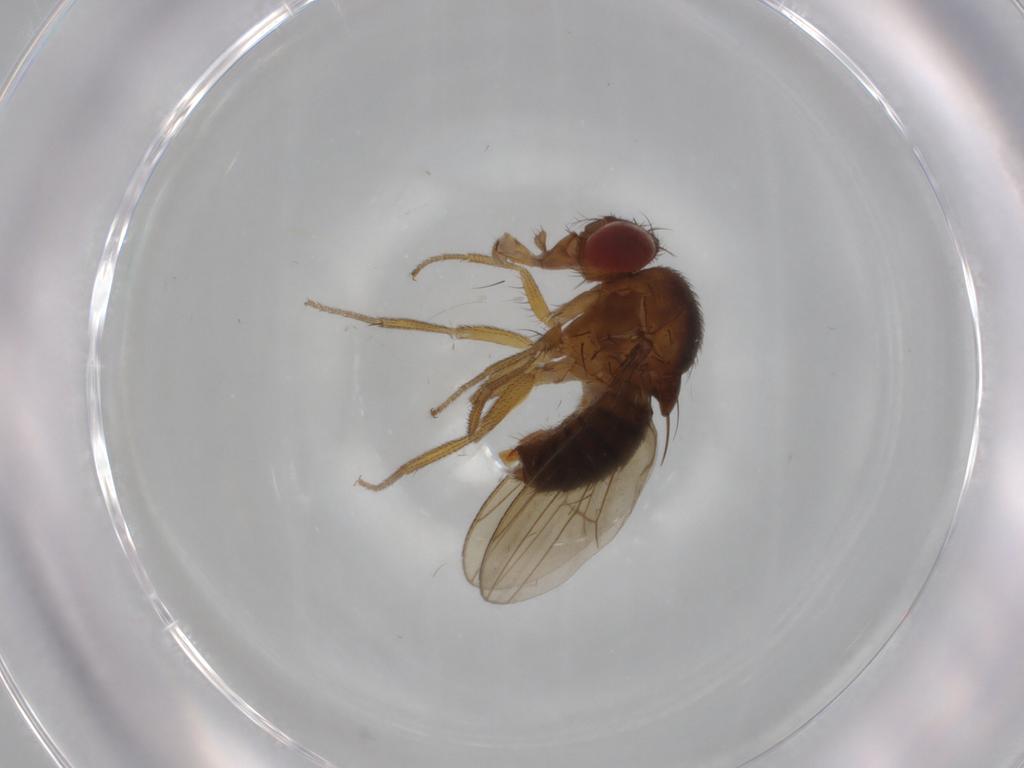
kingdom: Animalia
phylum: Arthropoda
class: Insecta
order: Diptera
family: Drosophilidae
